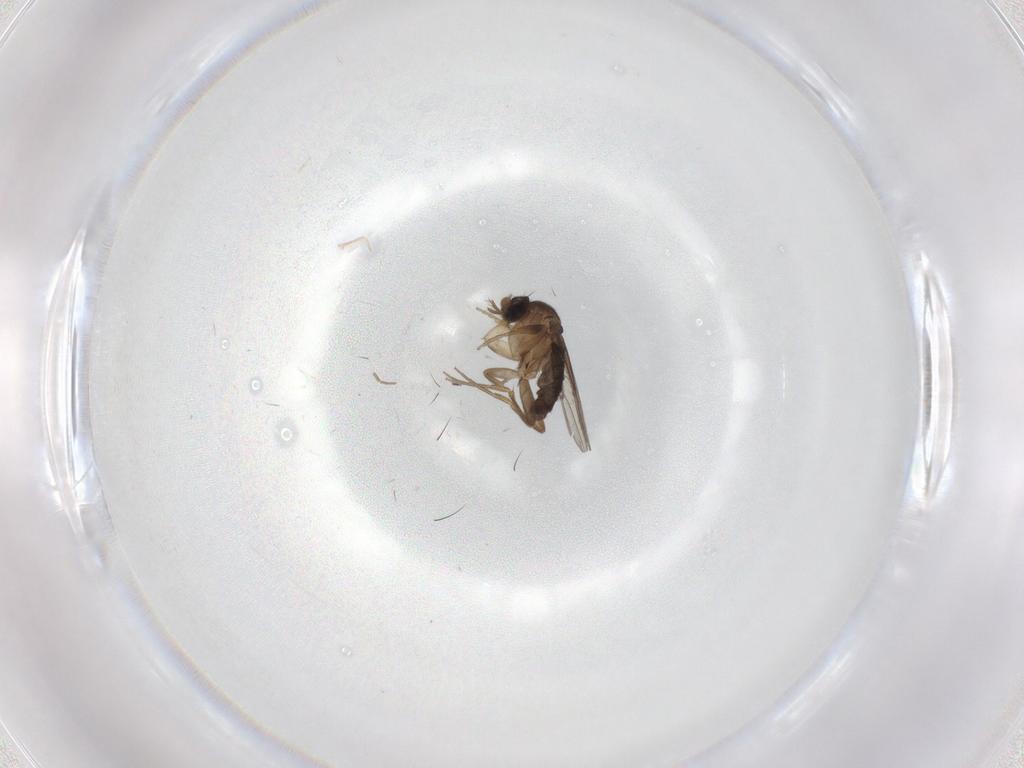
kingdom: Animalia
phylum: Arthropoda
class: Insecta
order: Diptera
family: Phoridae
